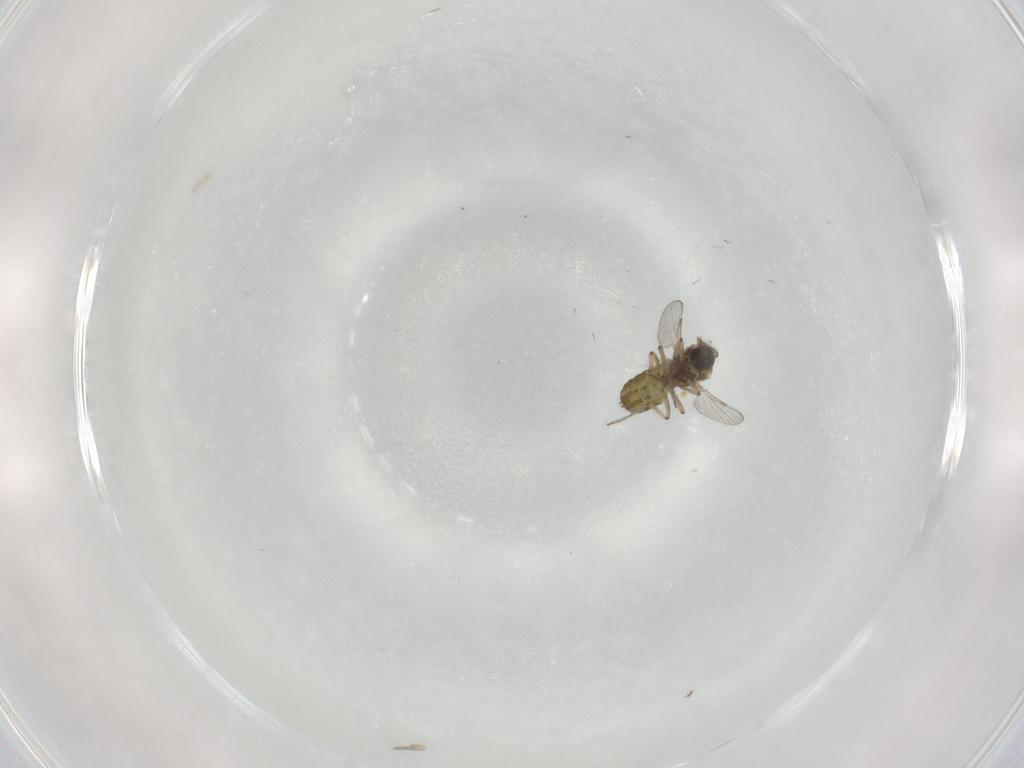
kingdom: Animalia
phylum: Arthropoda
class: Insecta
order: Diptera
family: Ceratopogonidae
